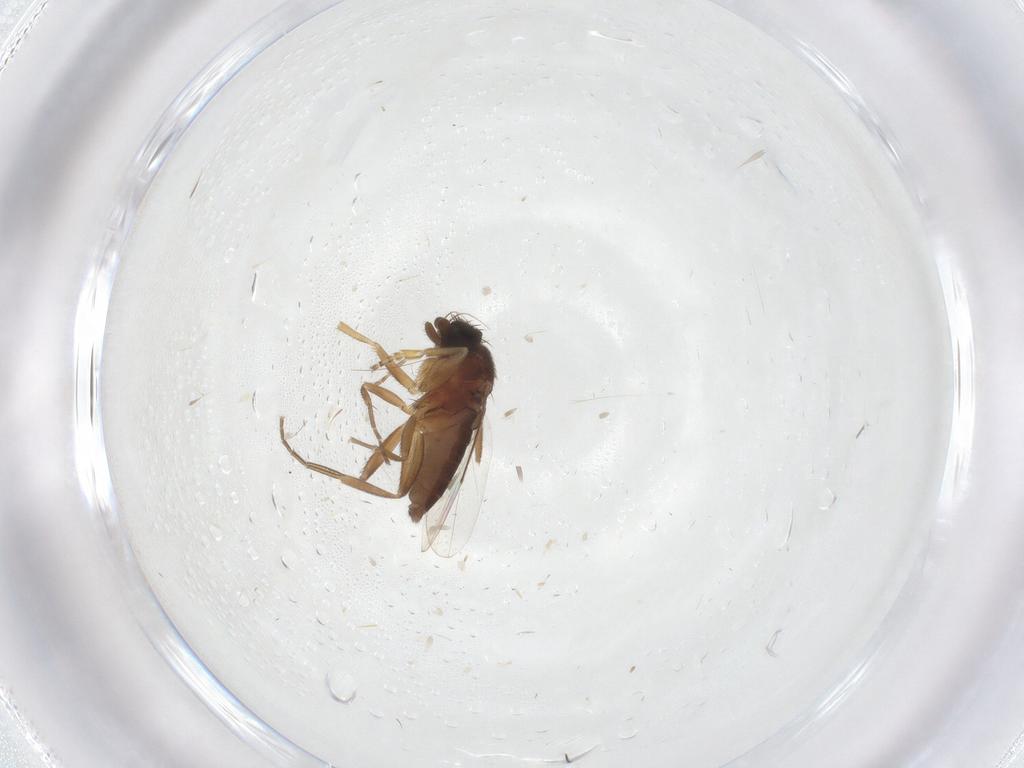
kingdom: Animalia
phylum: Arthropoda
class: Insecta
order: Diptera
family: Phoridae
